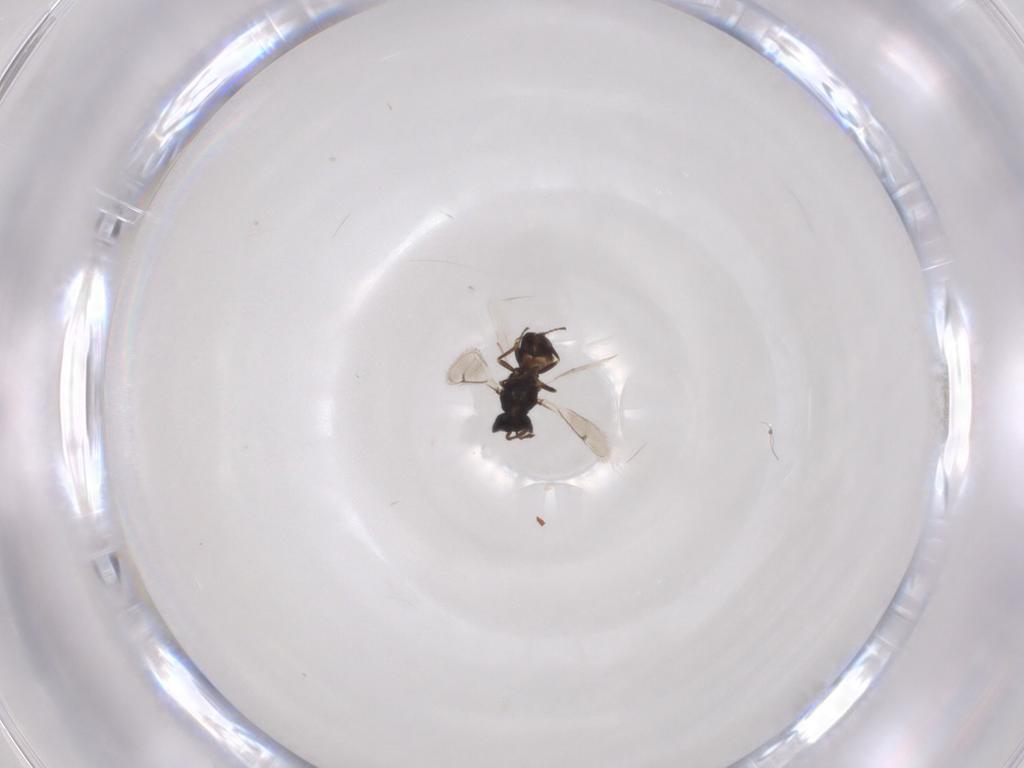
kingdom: Animalia
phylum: Arthropoda
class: Insecta
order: Hymenoptera
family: Eulophidae
